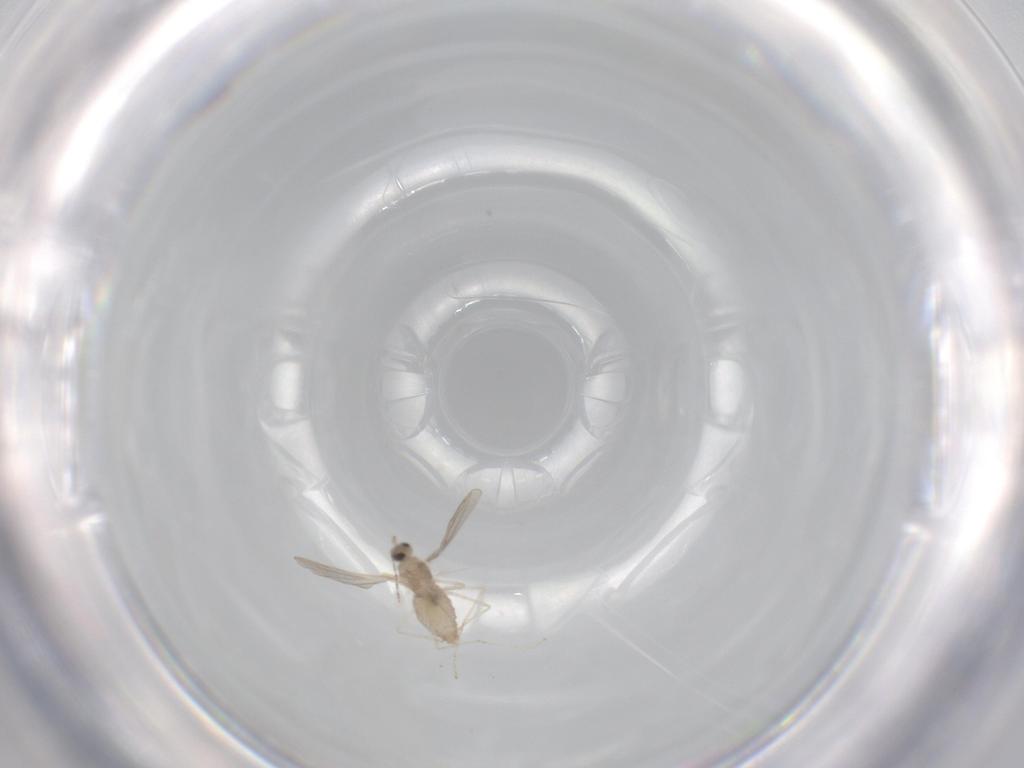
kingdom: Animalia
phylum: Arthropoda
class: Insecta
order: Diptera
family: Cecidomyiidae
